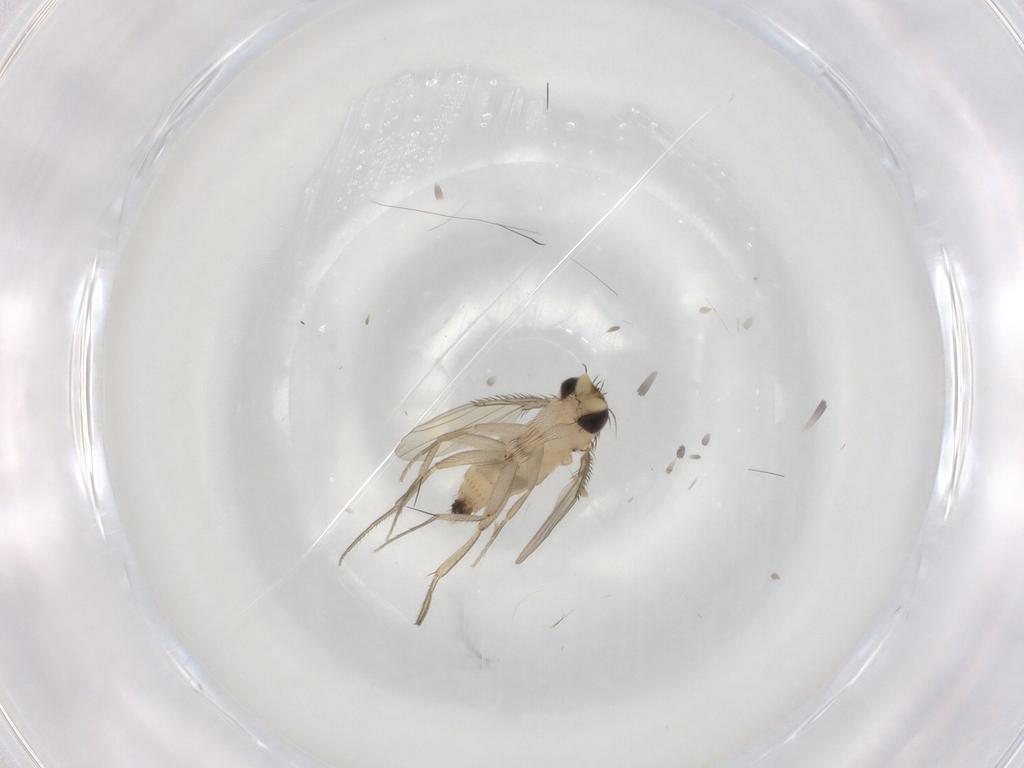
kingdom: Animalia
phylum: Arthropoda
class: Insecta
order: Diptera
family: Phoridae
